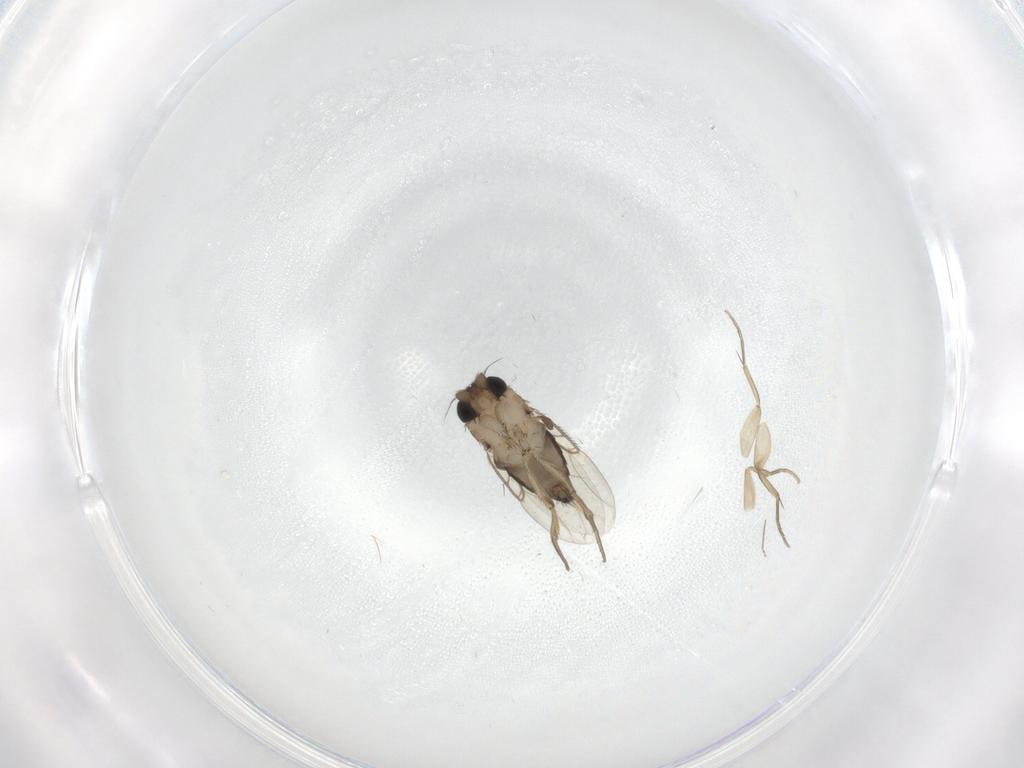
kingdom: Animalia
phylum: Arthropoda
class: Insecta
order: Diptera
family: Phoridae
